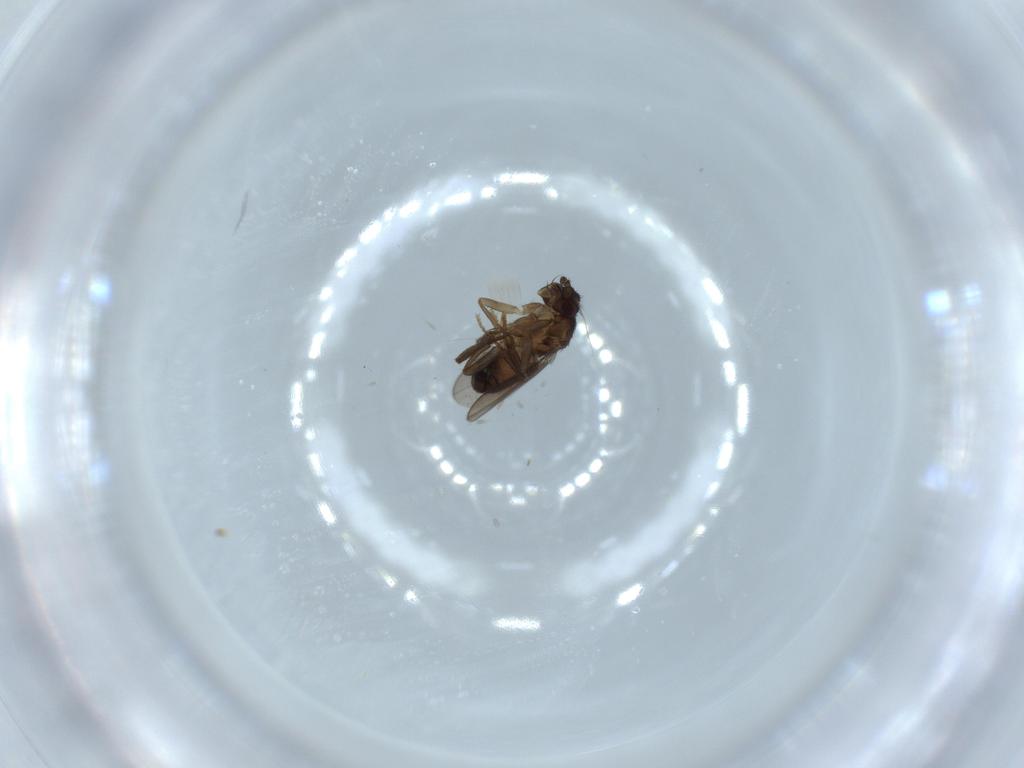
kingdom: Animalia
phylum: Arthropoda
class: Insecta
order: Diptera
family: Sphaeroceridae
